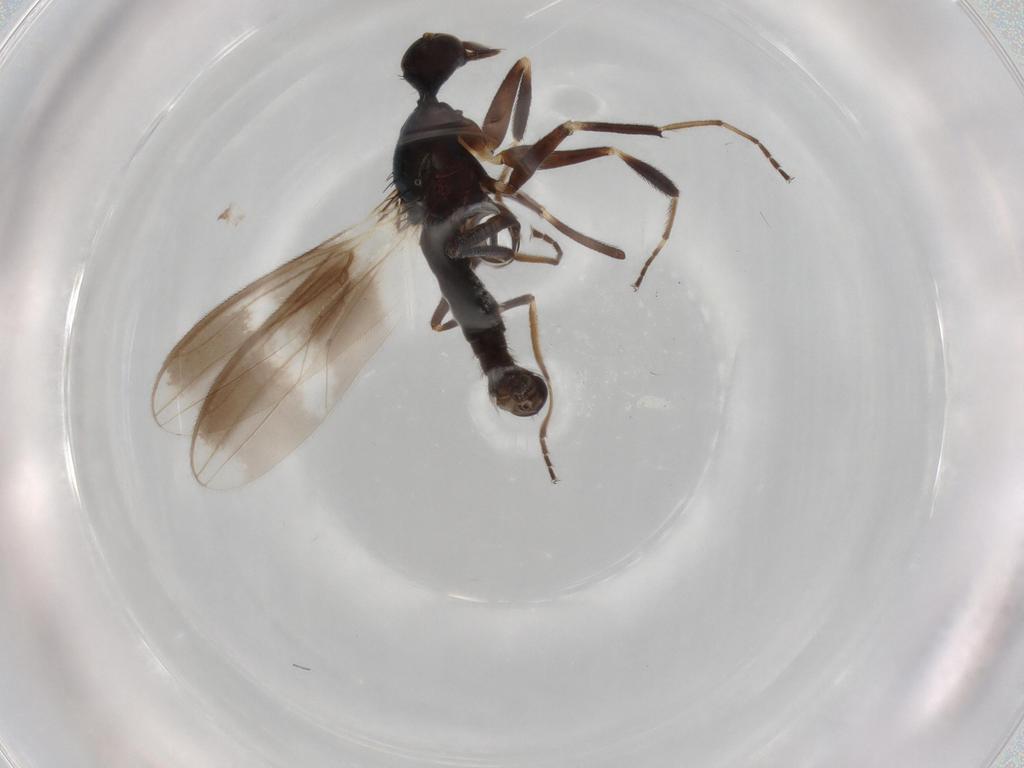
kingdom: Animalia
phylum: Arthropoda
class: Insecta
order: Diptera
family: Hybotidae
